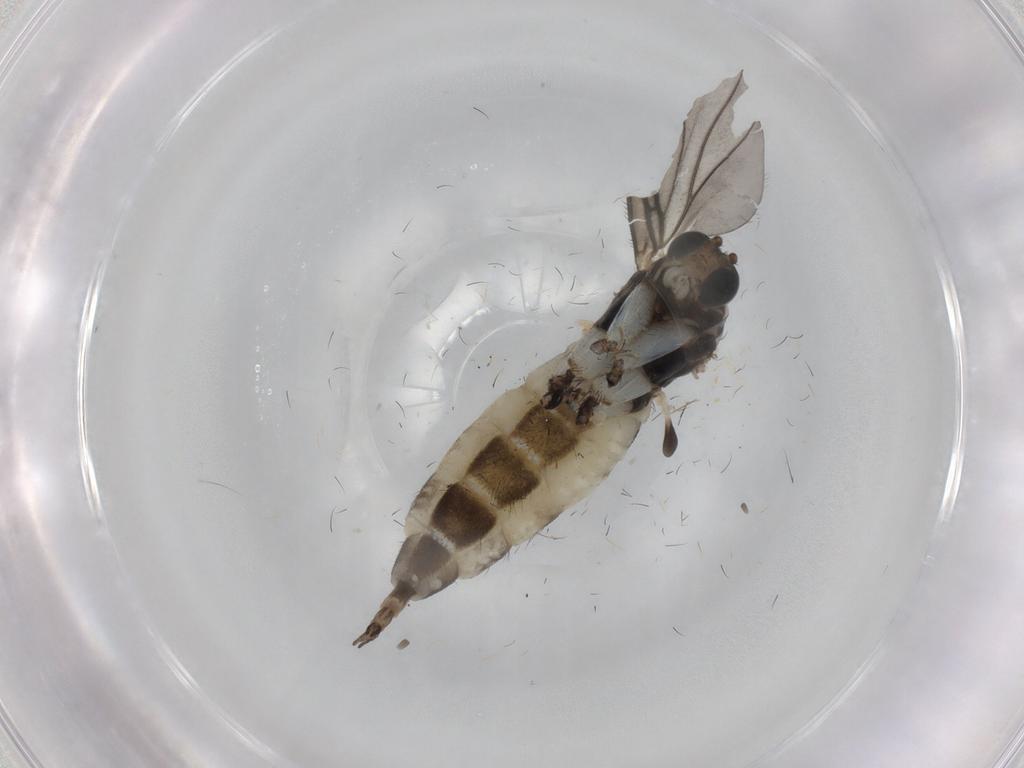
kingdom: Animalia
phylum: Arthropoda
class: Insecta
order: Diptera
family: Sciaridae
